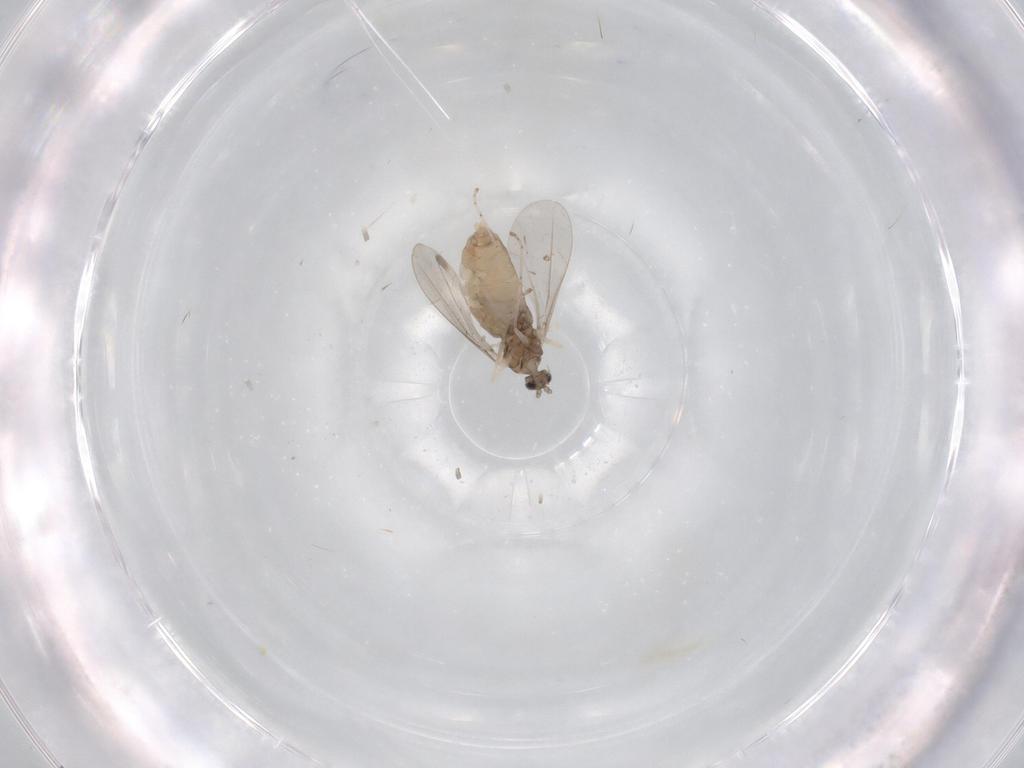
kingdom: Animalia
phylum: Arthropoda
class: Insecta
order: Diptera
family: Cecidomyiidae
